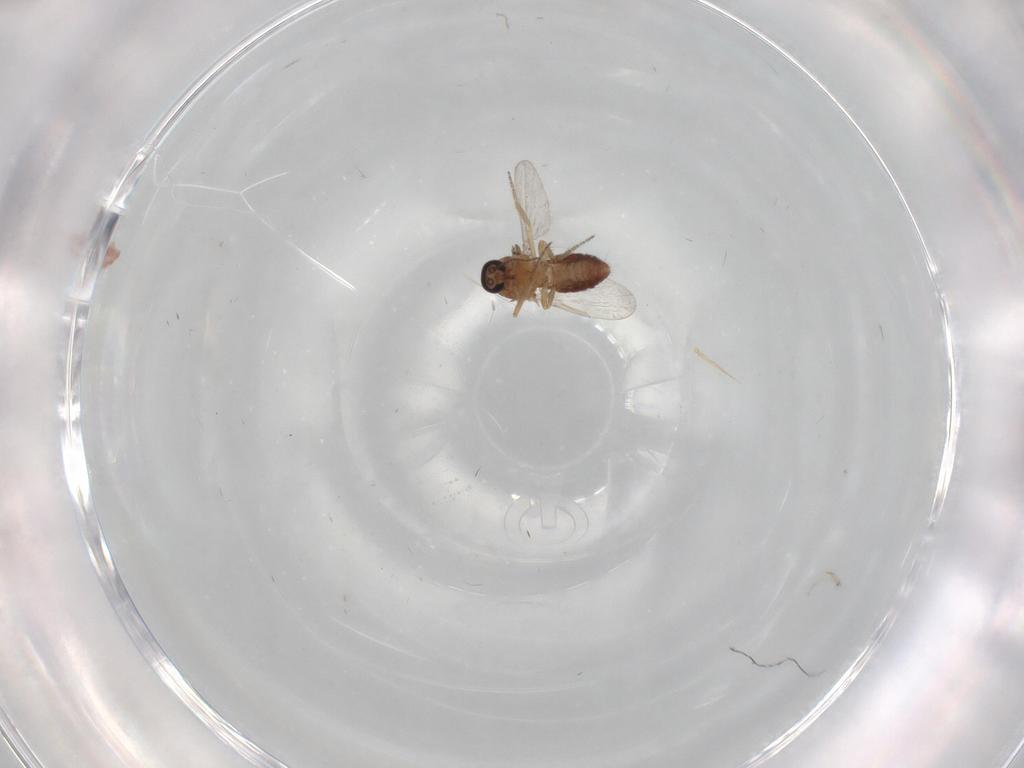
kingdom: Animalia
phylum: Arthropoda
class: Insecta
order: Diptera
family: Ceratopogonidae
